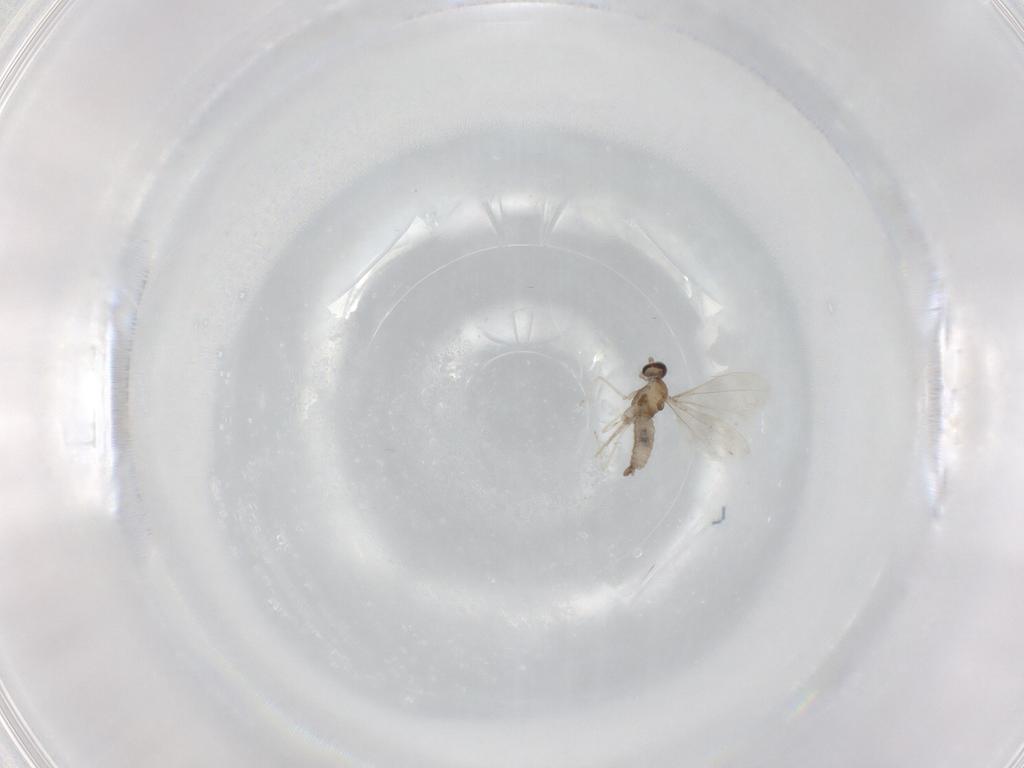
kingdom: Animalia
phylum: Arthropoda
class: Insecta
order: Diptera
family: Cecidomyiidae
